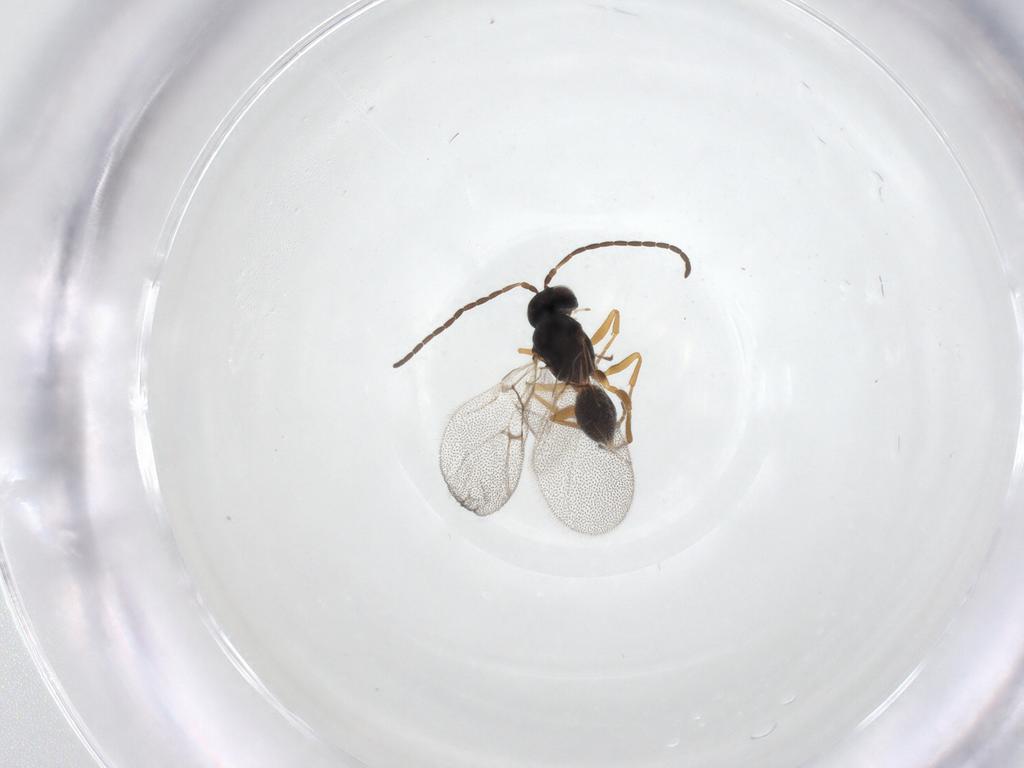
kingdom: Animalia
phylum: Arthropoda
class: Insecta
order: Hymenoptera
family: Cynipidae
